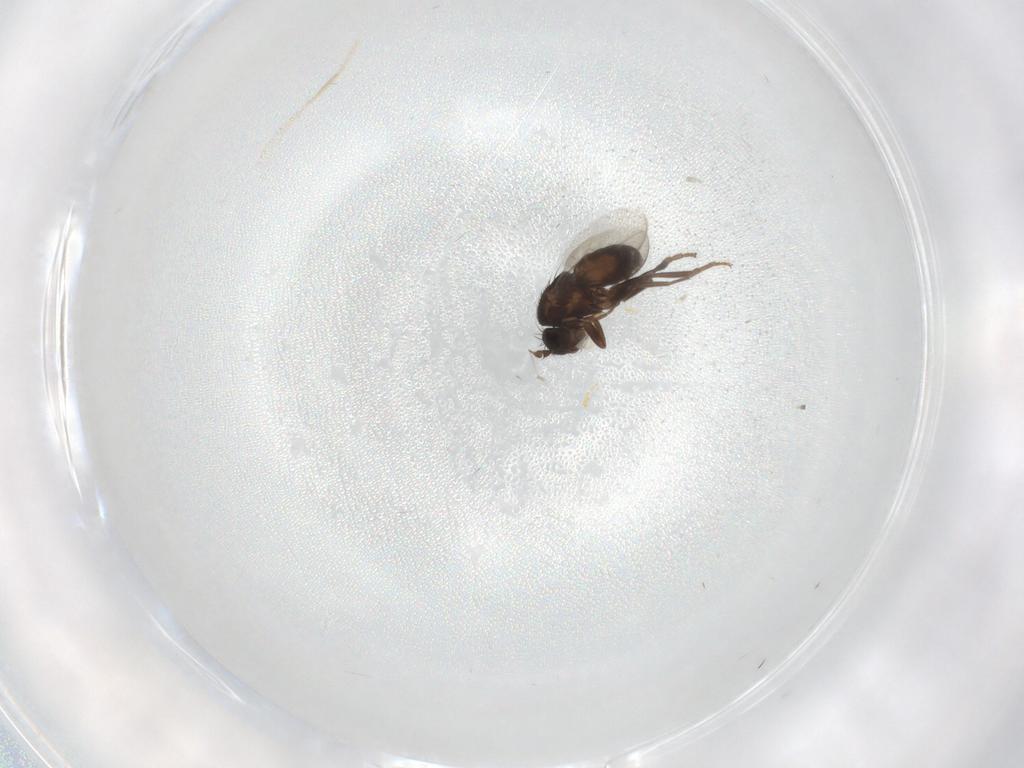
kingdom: Animalia
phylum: Arthropoda
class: Insecta
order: Diptera
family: Sphaeroceridae
